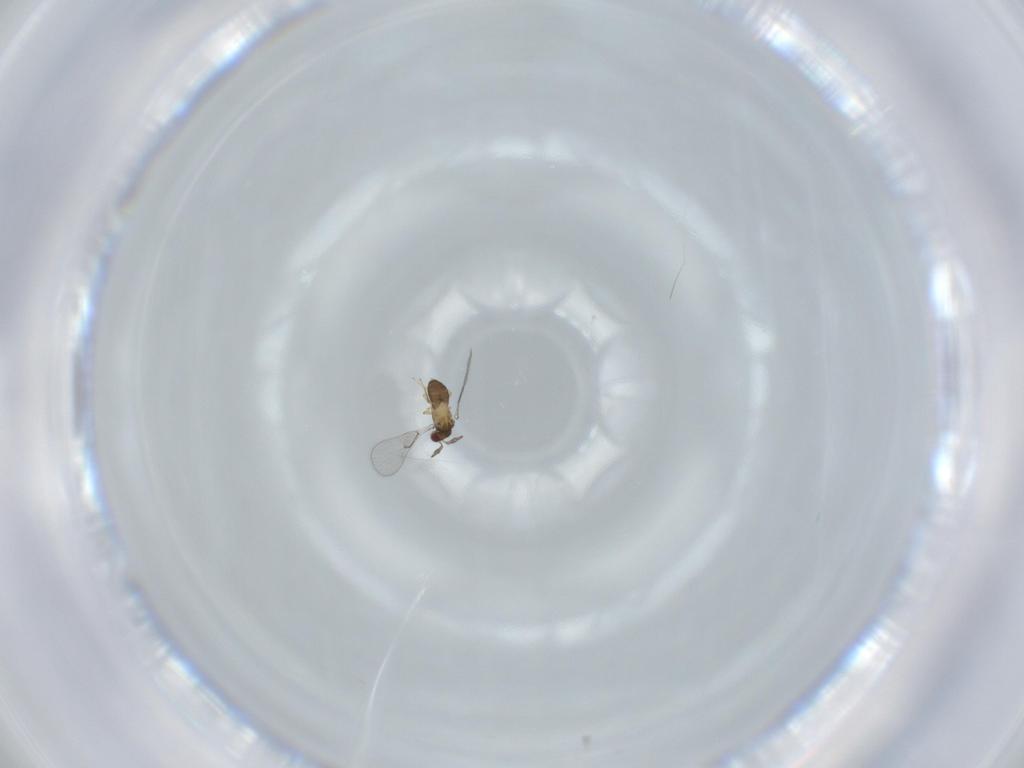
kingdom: Animalia
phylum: Arthropoda
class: Insecta
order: Hymenoptera
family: Trichogrammatidae
